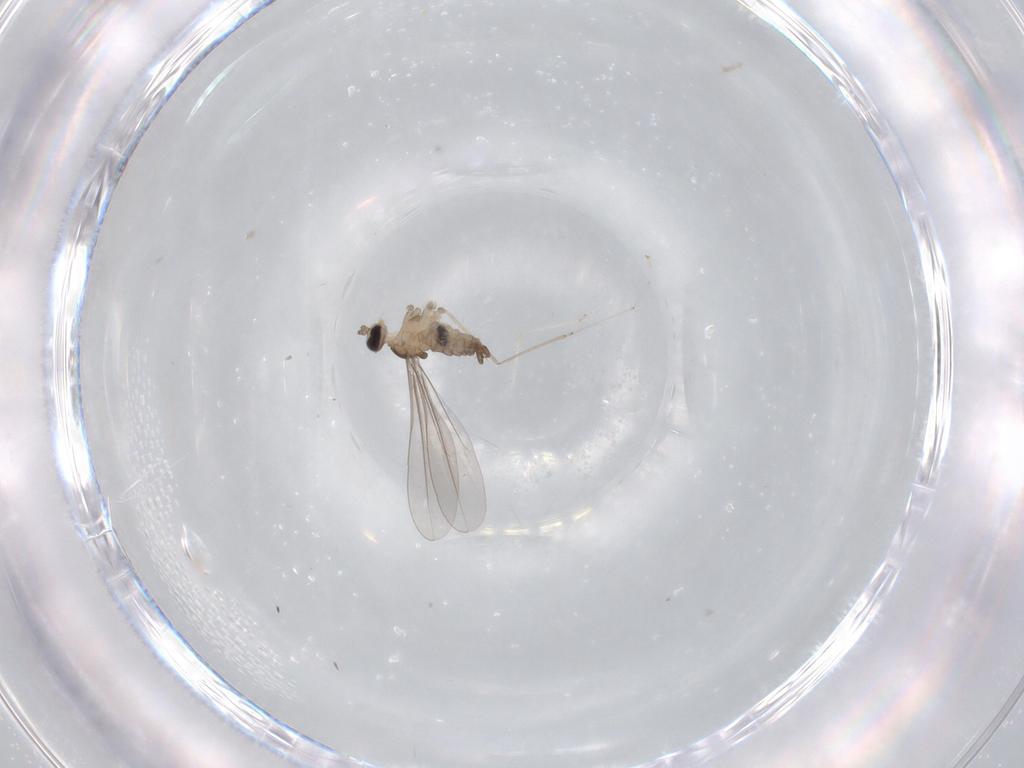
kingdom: Animalia
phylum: Arthropoda
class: Insecta
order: Diptera
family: Cecidomyiidae
